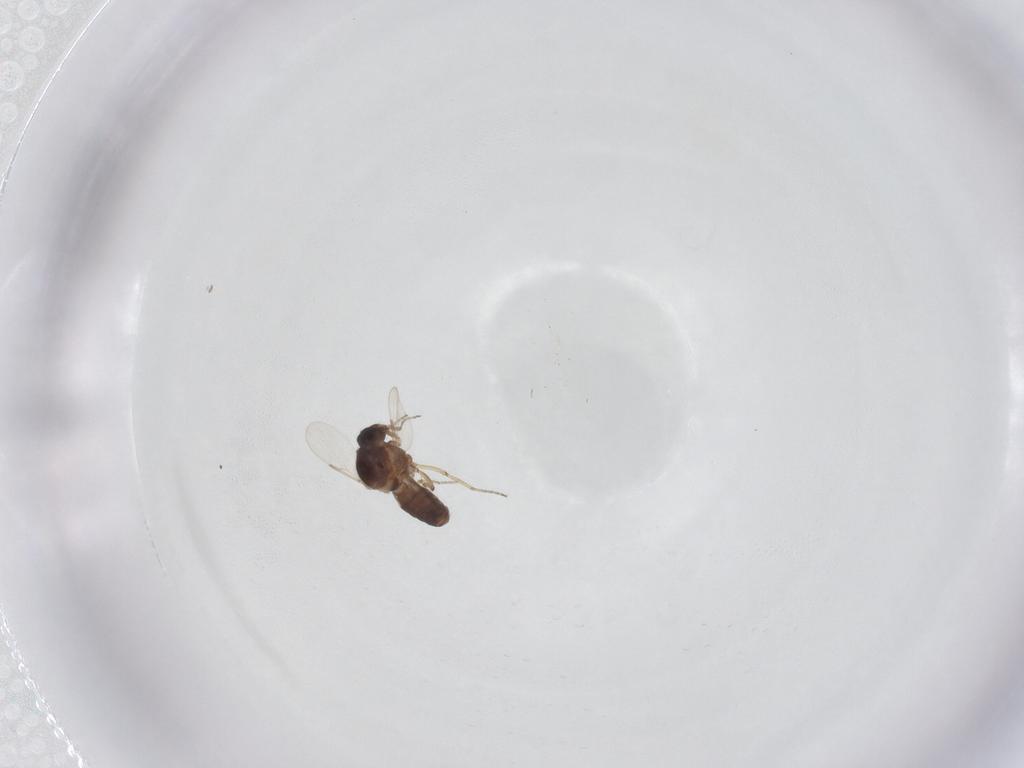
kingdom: Animalia
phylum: Arthropoda
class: Insecta
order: Diptera
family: Ceratopogonidae
